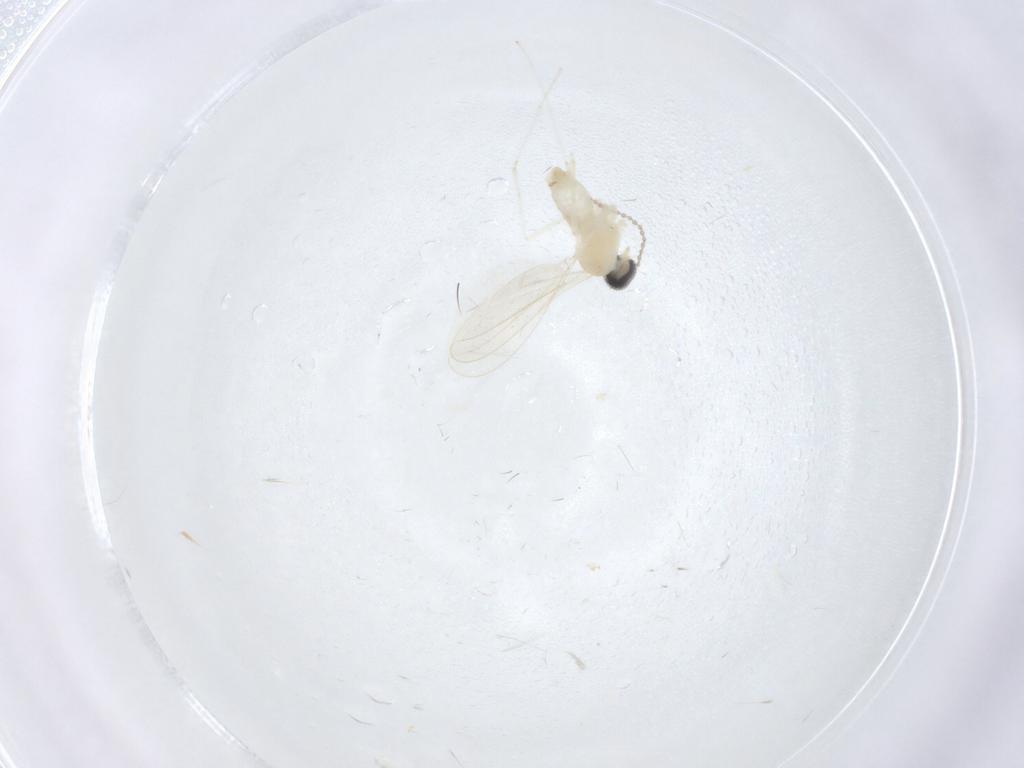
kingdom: Animalia
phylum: Arthropoda
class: Insecta
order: Diptera
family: Cecidomyiidae
